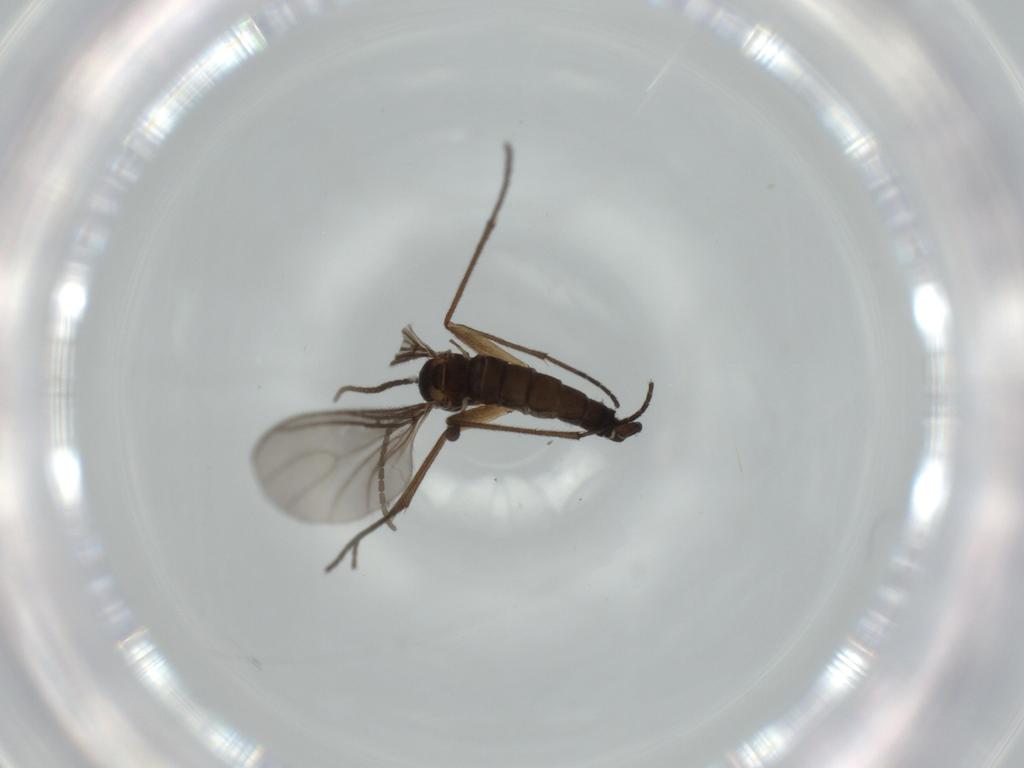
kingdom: Animalia
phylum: Arthropoda
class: Insecta
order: Diptera
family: Sciaridae
